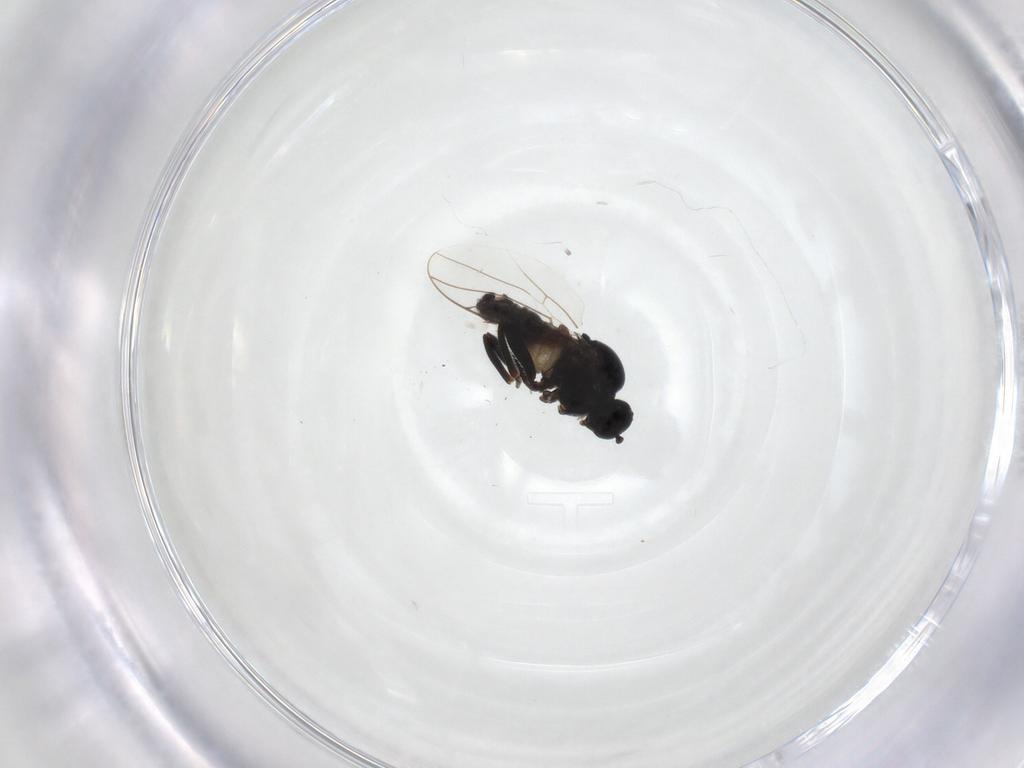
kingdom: Animalia
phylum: Arthropoda
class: Insecta
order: Diptera
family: Hybotidae
